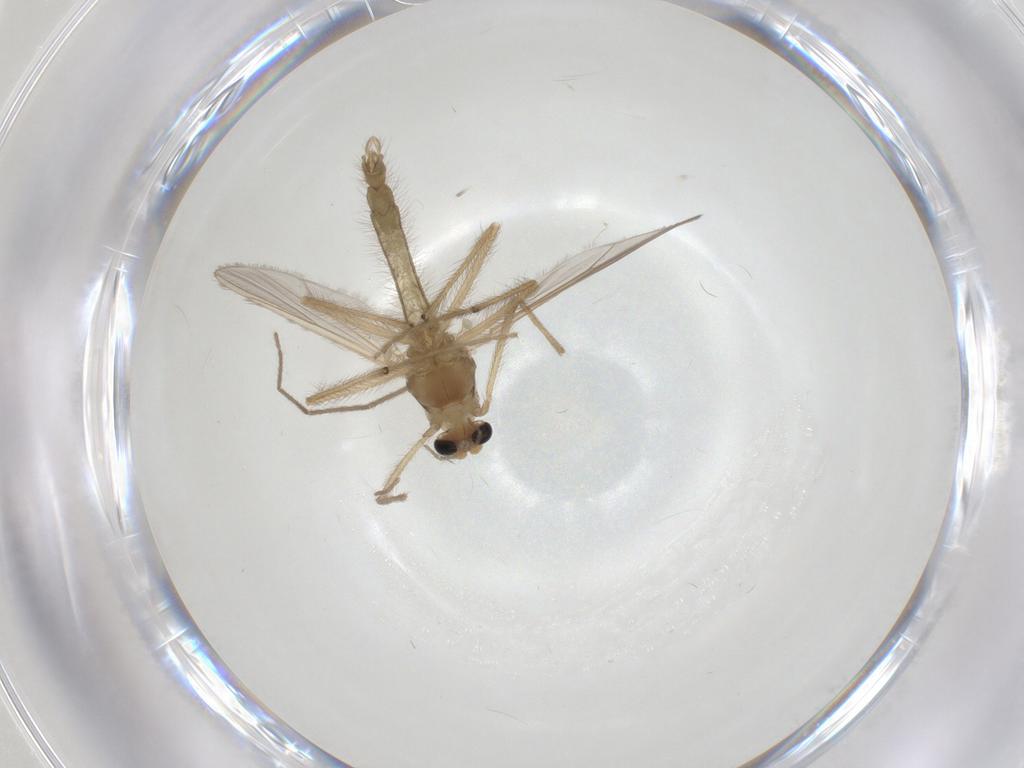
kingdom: Animalia
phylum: Arthropoda
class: Insecta
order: Diptera
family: Chironomidae
